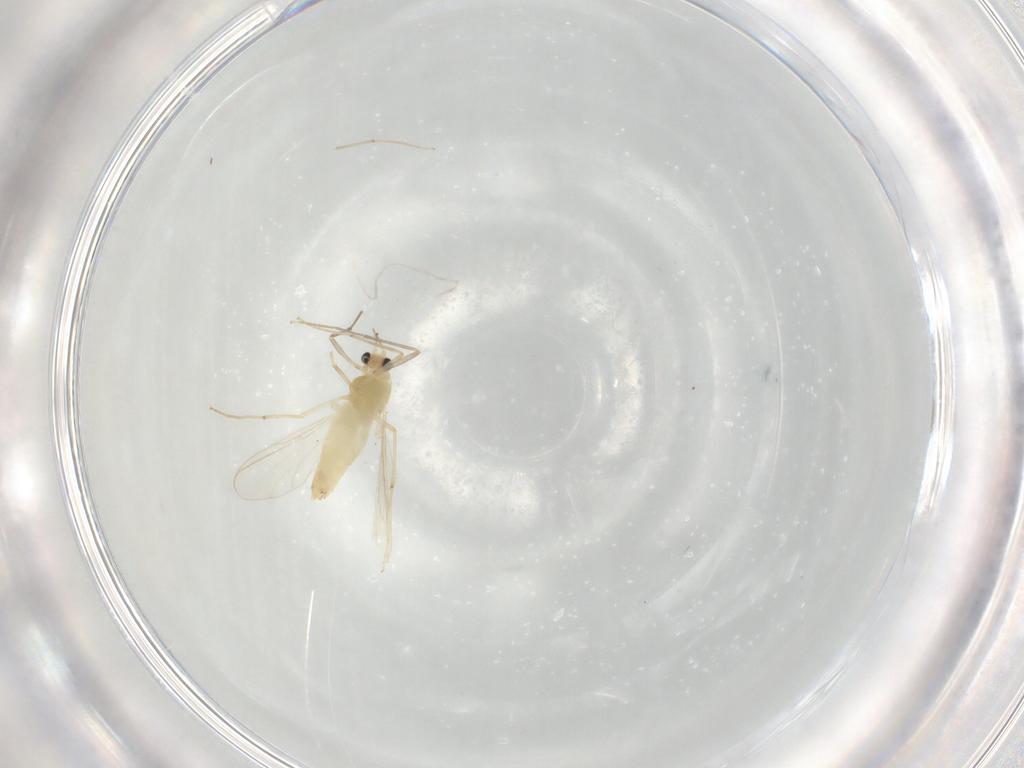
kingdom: Animalia
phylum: Arthropoda
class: Insecta
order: Diptera
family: Chironomidae
